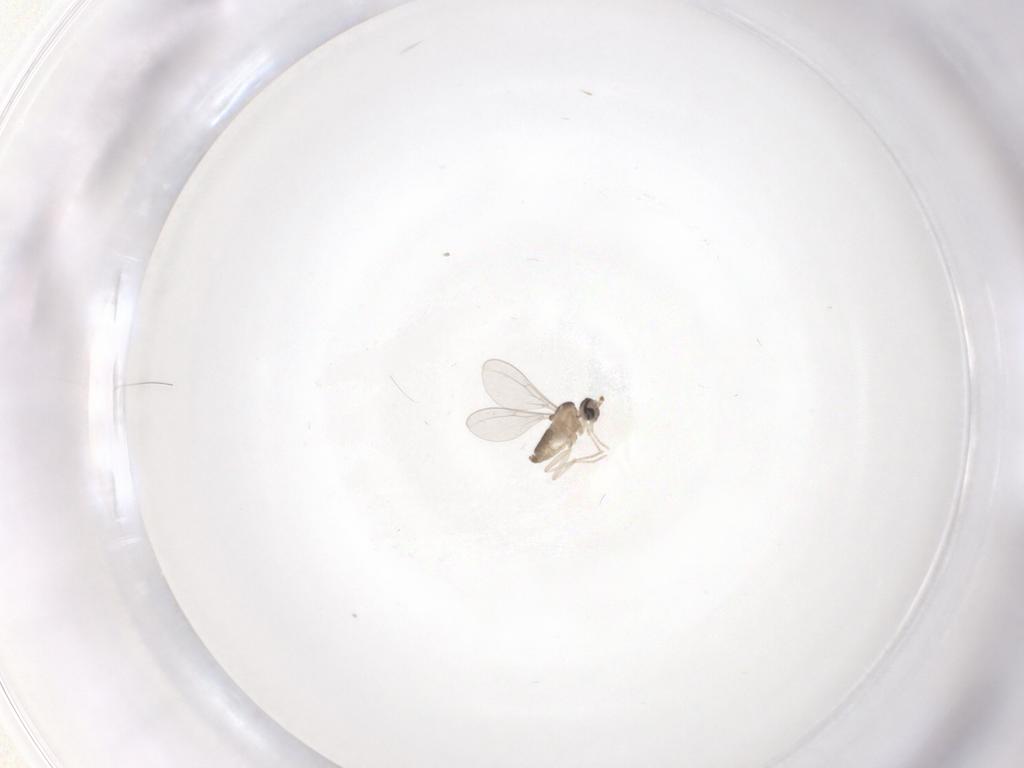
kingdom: Animalia
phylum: Arthropoda
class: Insecta
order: Diptera
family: Cecidomyiidae
